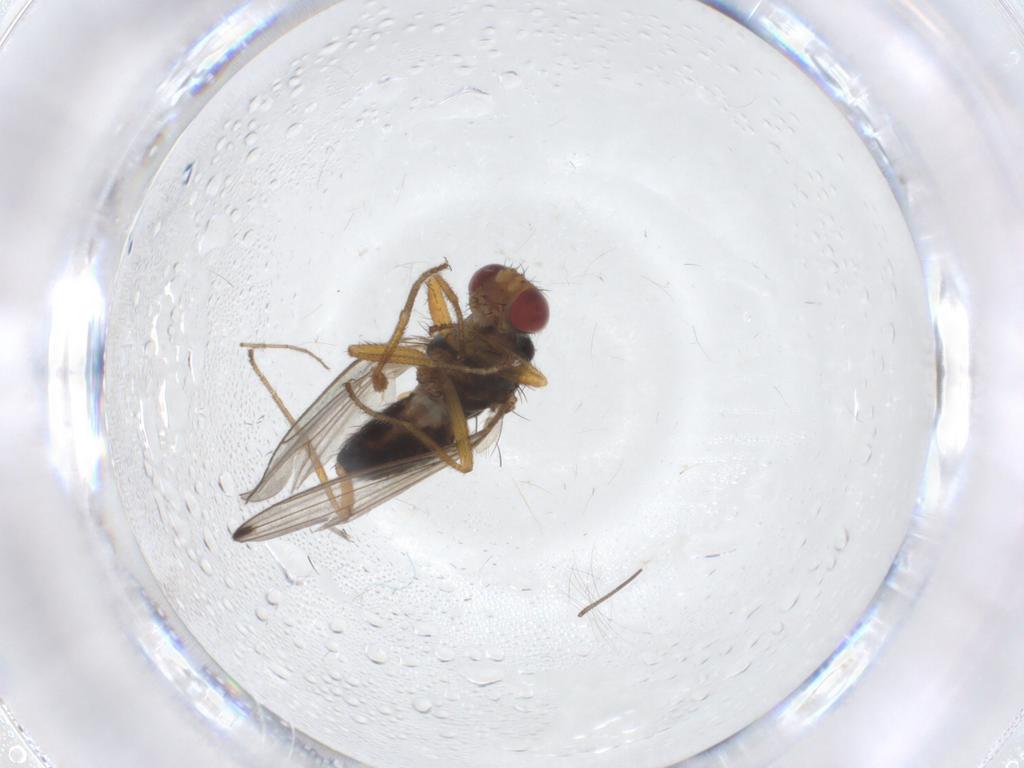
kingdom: Animalia
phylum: Arthropoda
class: Insecta
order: Diptera
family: Drosophilidae
